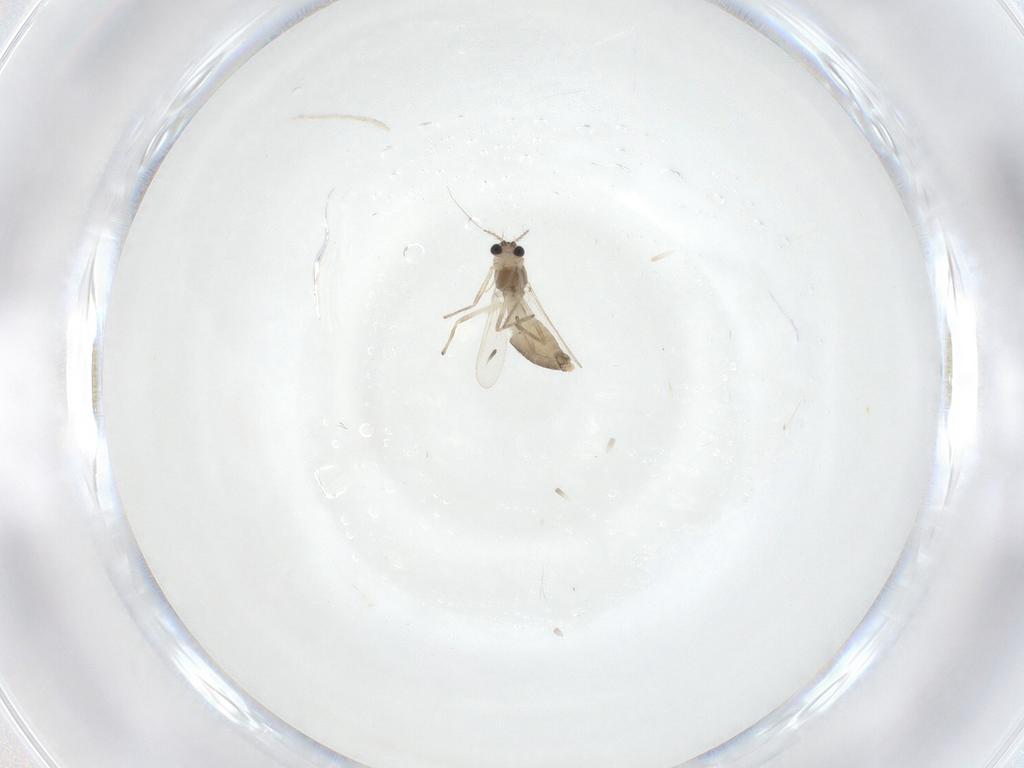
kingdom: Animalia
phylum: Arthropoda
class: Insecta
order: Diptera
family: Chironomidae
